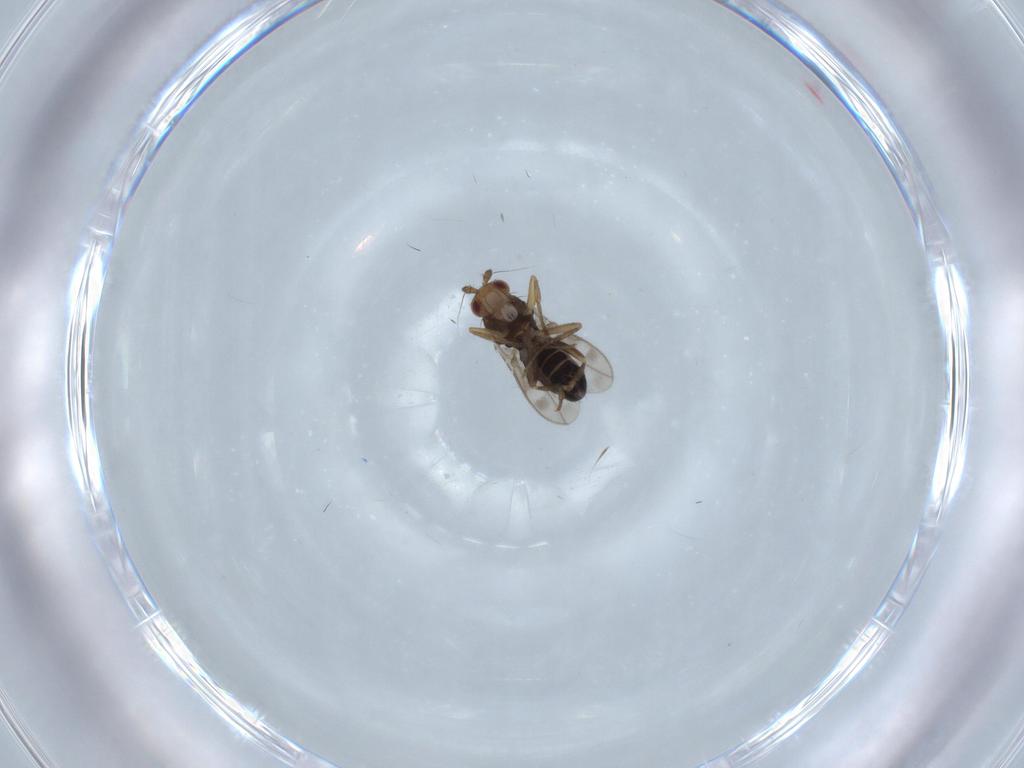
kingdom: Animalia
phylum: Arthropoda
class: Insecta
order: Diptera
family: Sphaeroceridae
